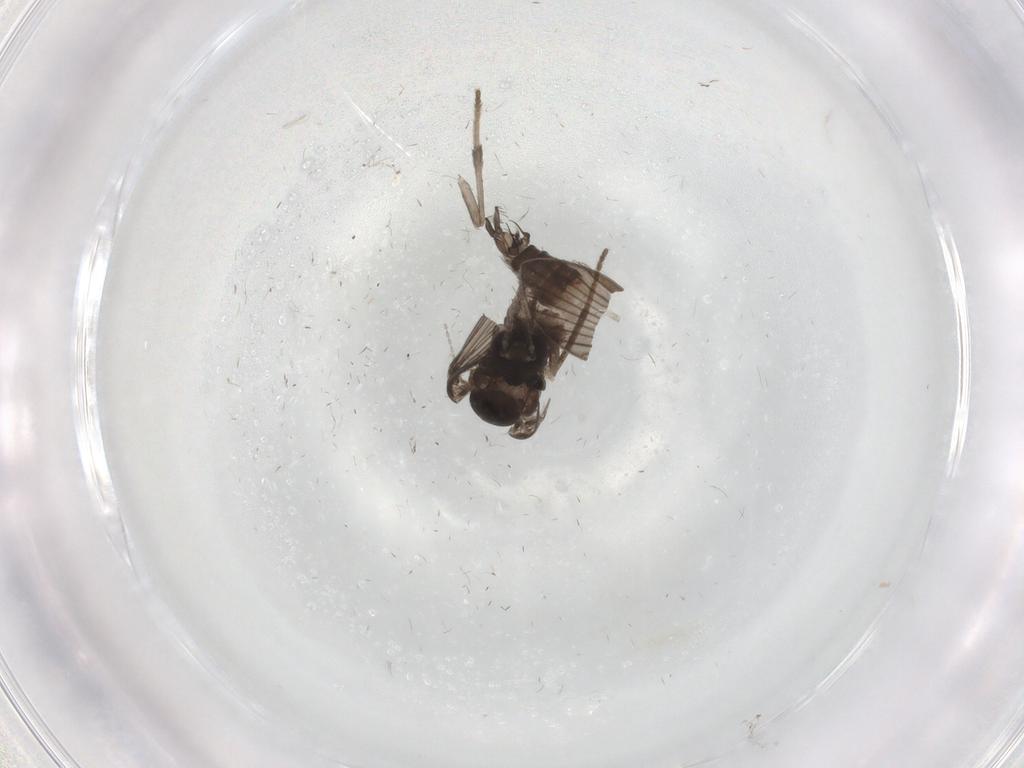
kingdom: Animalia
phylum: Arthropoda
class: Insecta
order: Diptera
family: Psychodidae
